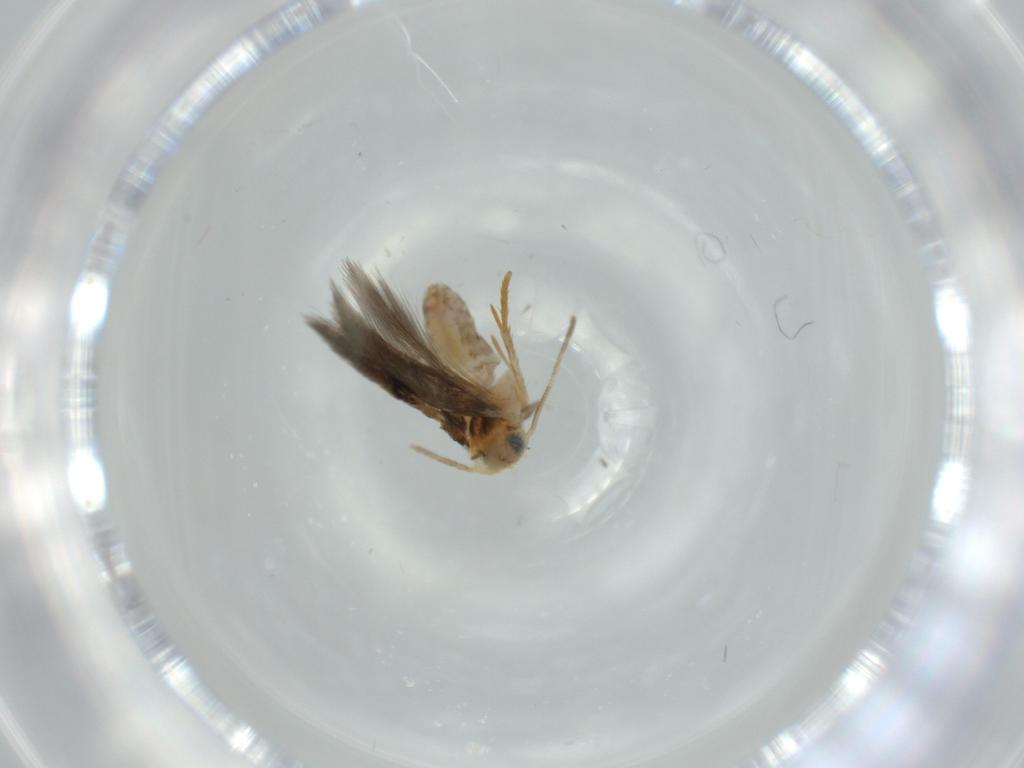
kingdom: Animalia
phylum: Arthropoda
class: Insecta
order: Lepidoptera
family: Nepticulidae
